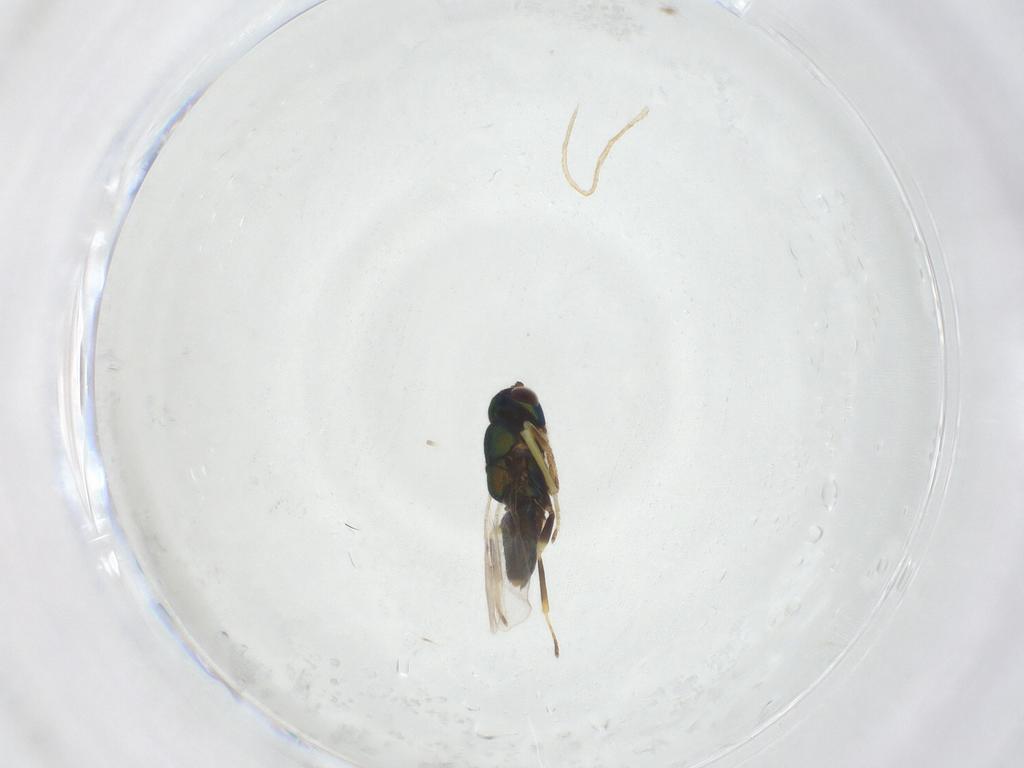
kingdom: Animalia
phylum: Arthropoda
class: Insecta
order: Hymenoptera
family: Encyrtidae
